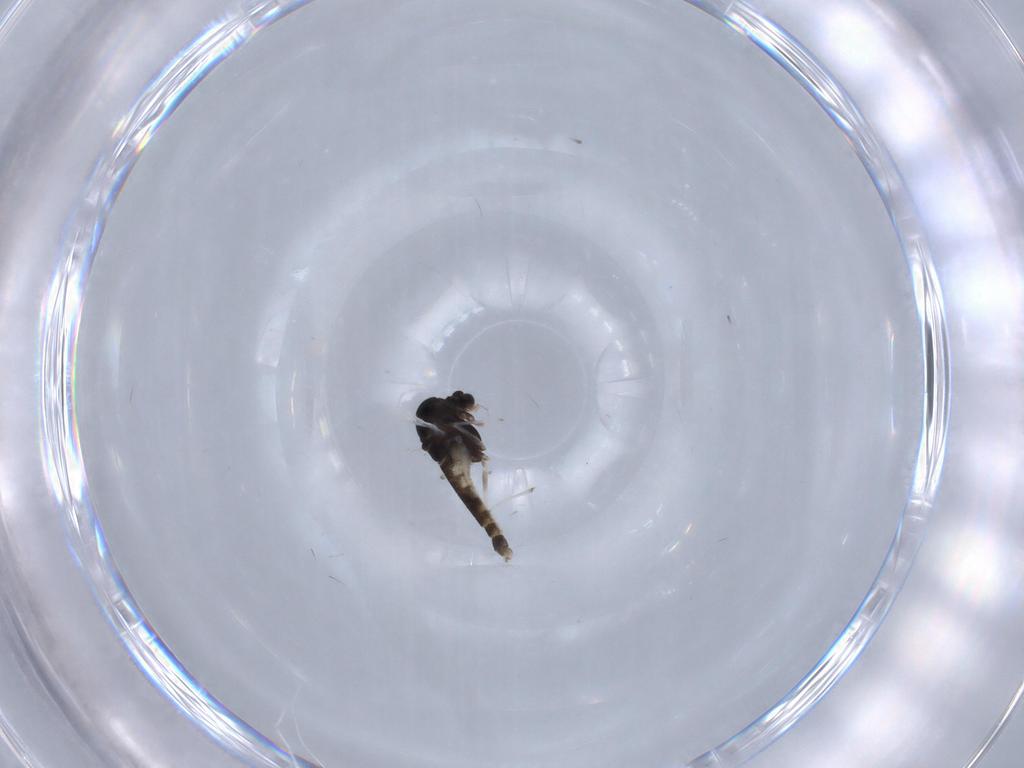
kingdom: Animalia
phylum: Arthropoda
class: Insecta
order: Diptera
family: Chironomidae
